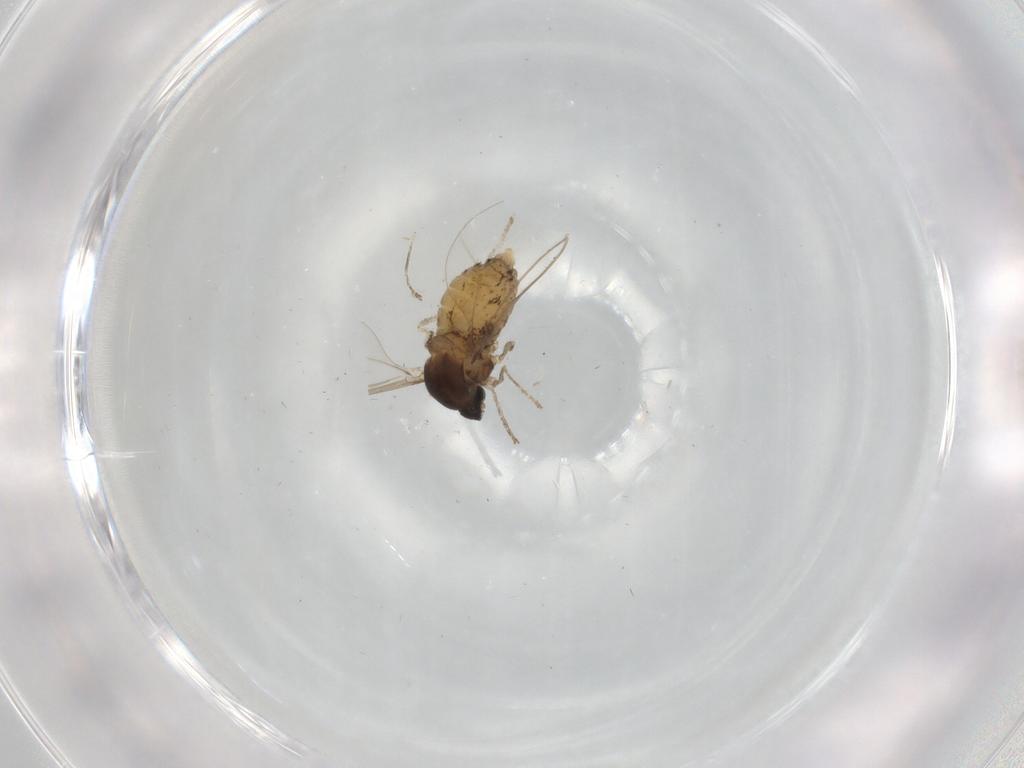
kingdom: Animalia
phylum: Arthropoda
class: Insecta
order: Diptera
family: Cecidomyiidae
